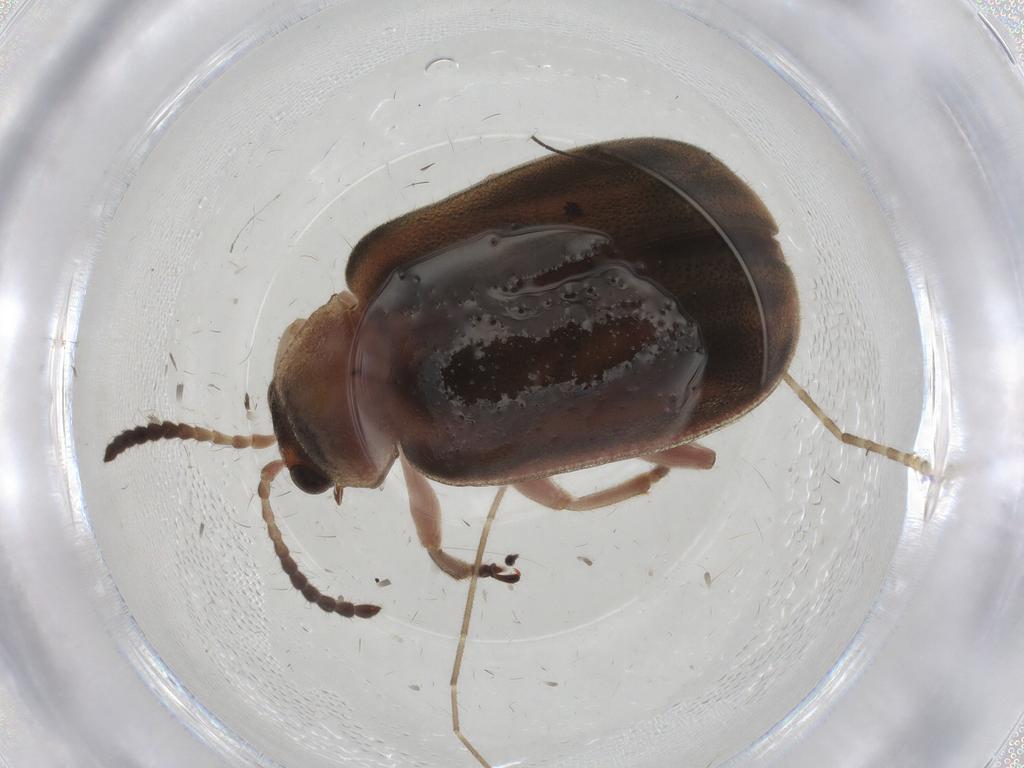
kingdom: Animalia
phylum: Arthropoda
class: Insecta
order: Coleoptera
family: Chrysomelidae
